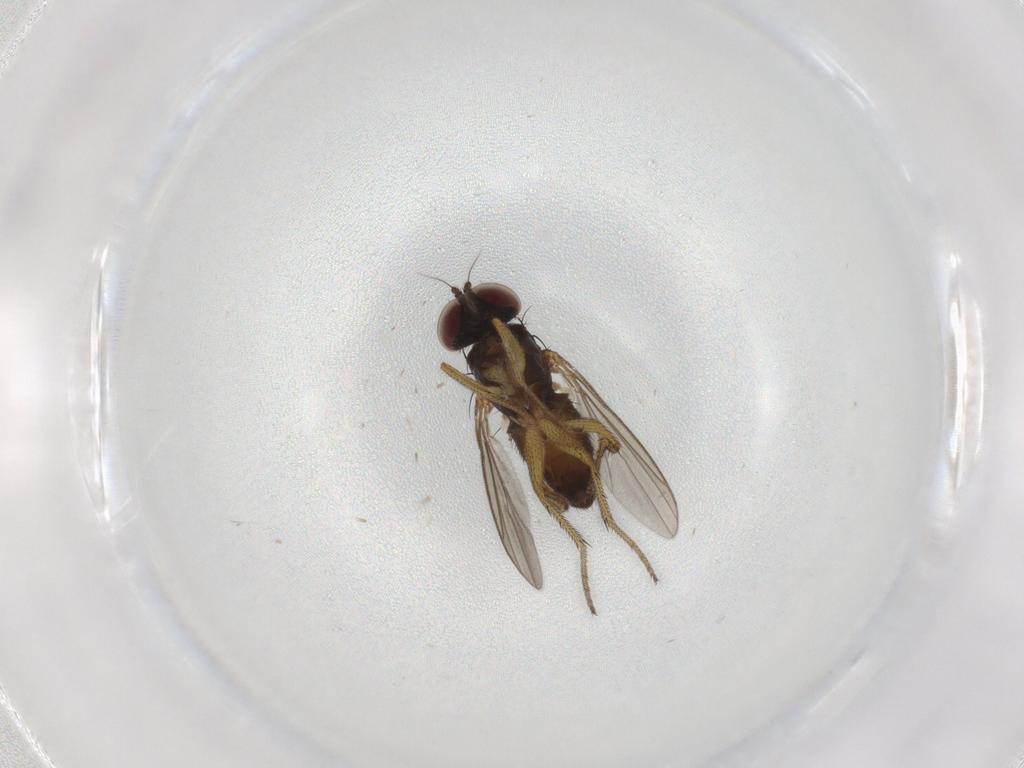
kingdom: Animalia
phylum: Arthropoda
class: Insecta
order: Diptera
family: Dolichopodidae
